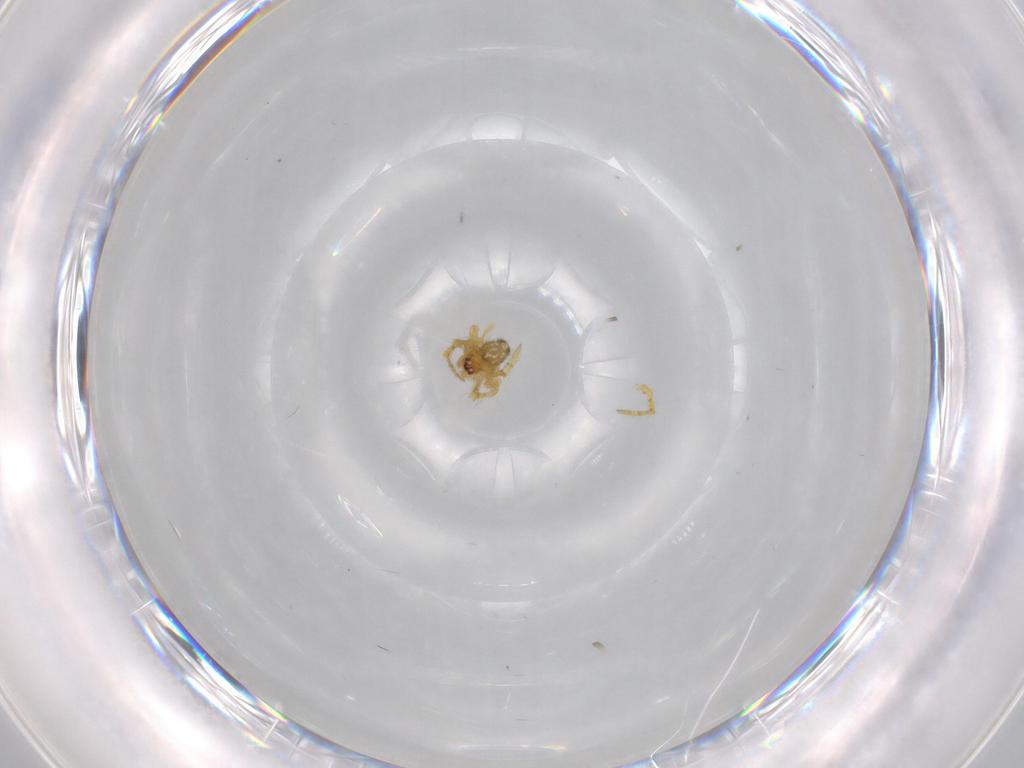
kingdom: Animalia
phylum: Arthropoda
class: Arachnida
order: Araneae
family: Theridiidae
